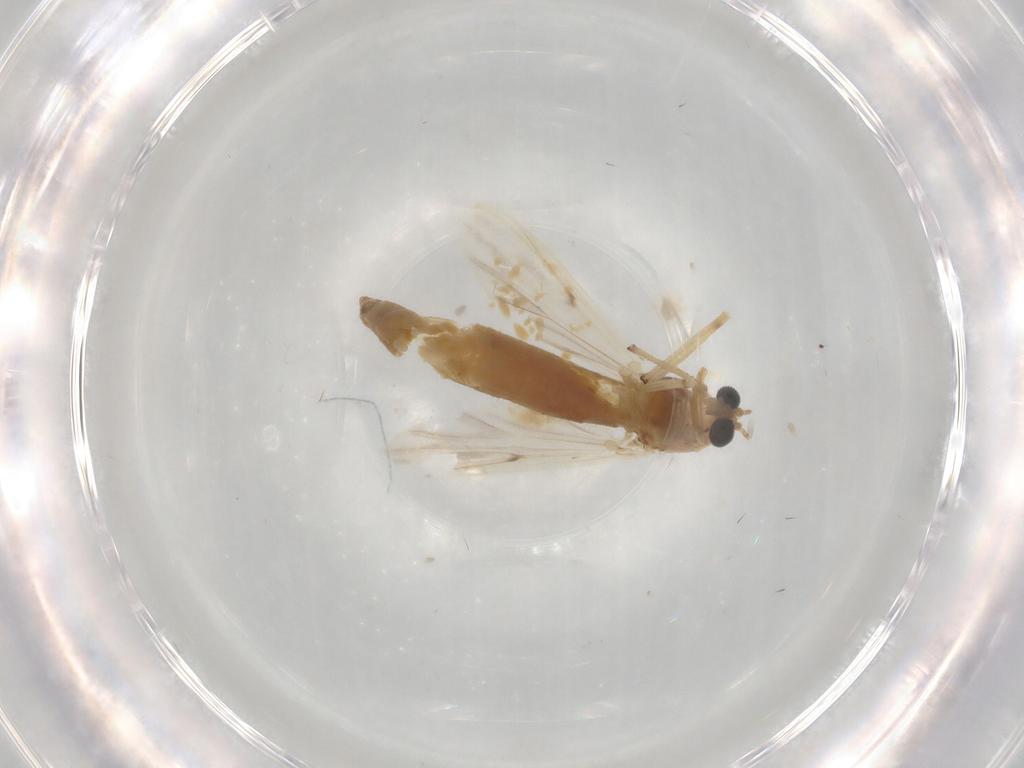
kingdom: Animalia
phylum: Arthropoda
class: Insecta
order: Diptera
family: Chironomidae
